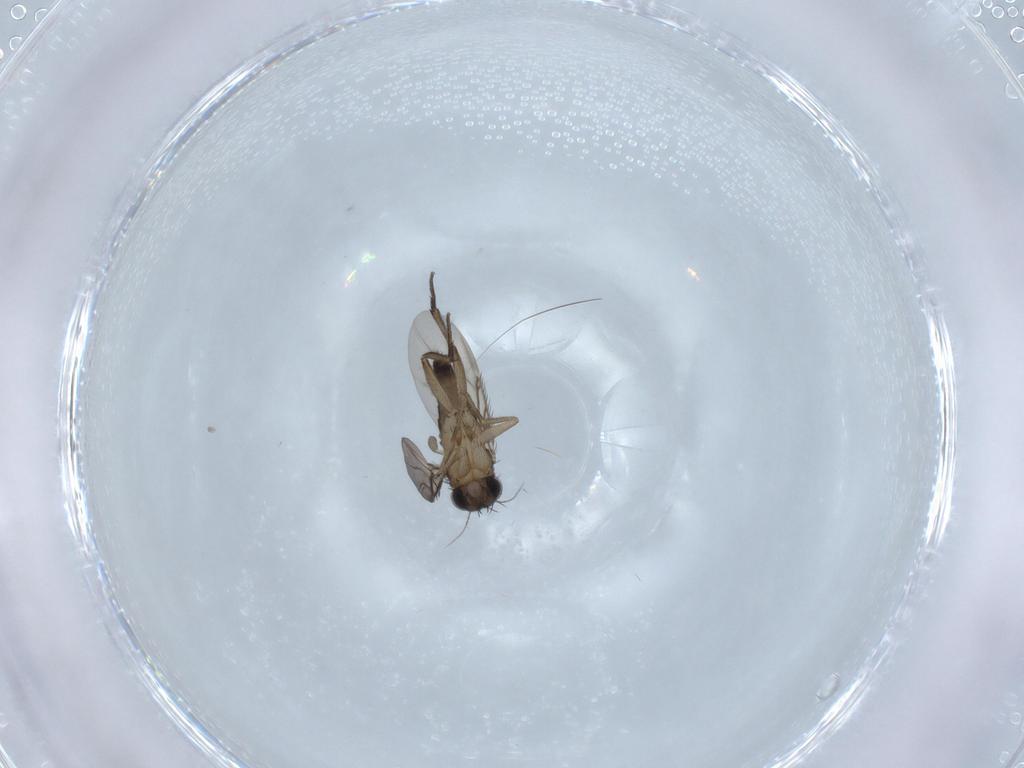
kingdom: Animalia
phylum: Arthropoda
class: Insecta
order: Diptera
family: Phoridae
